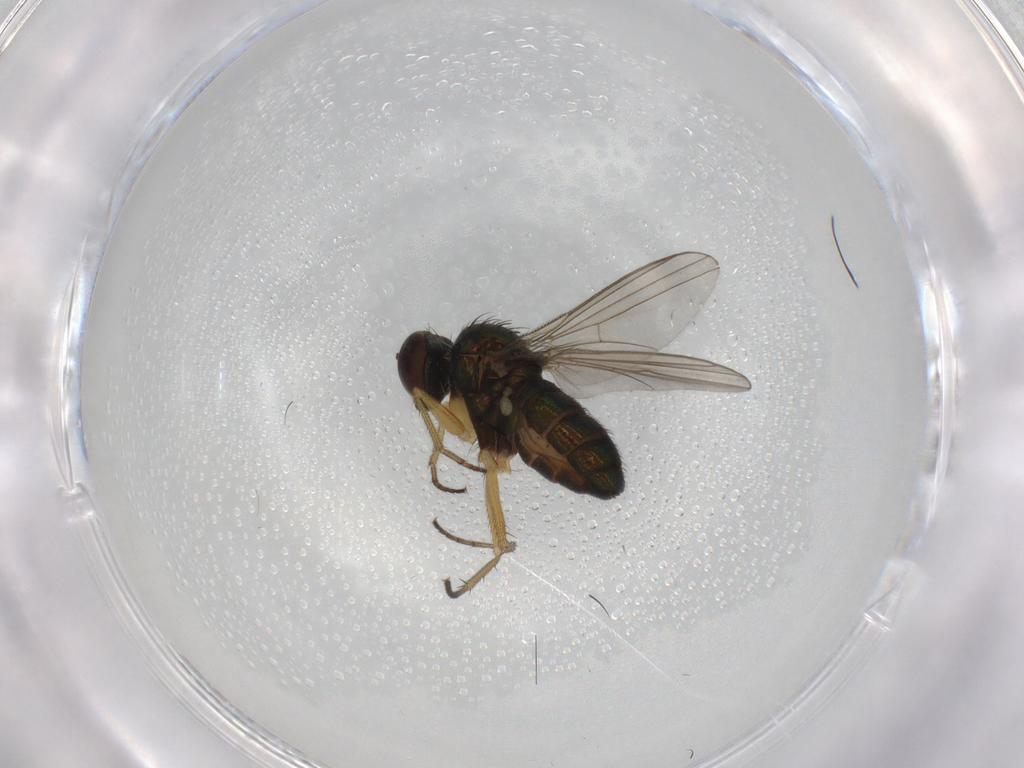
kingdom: Animalia
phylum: Arthropoda
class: Insecta
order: Diptera
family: Dolichopodidae
